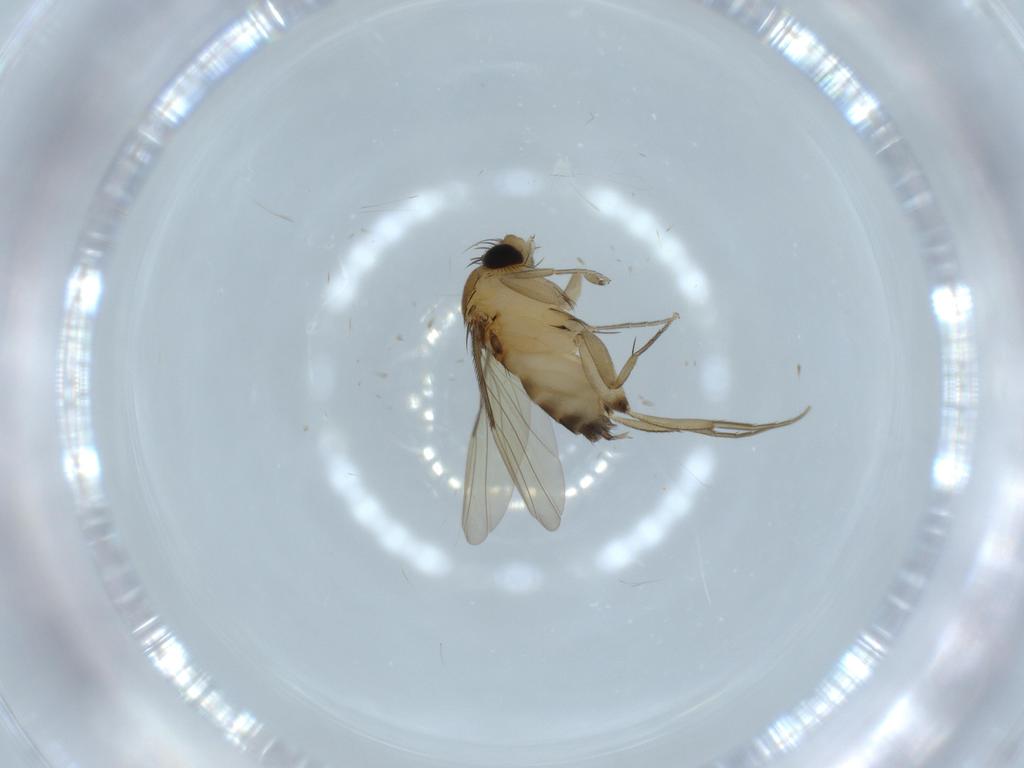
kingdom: Animalia
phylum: Arthropoda
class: Insecta
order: Diptera
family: Phoridae
